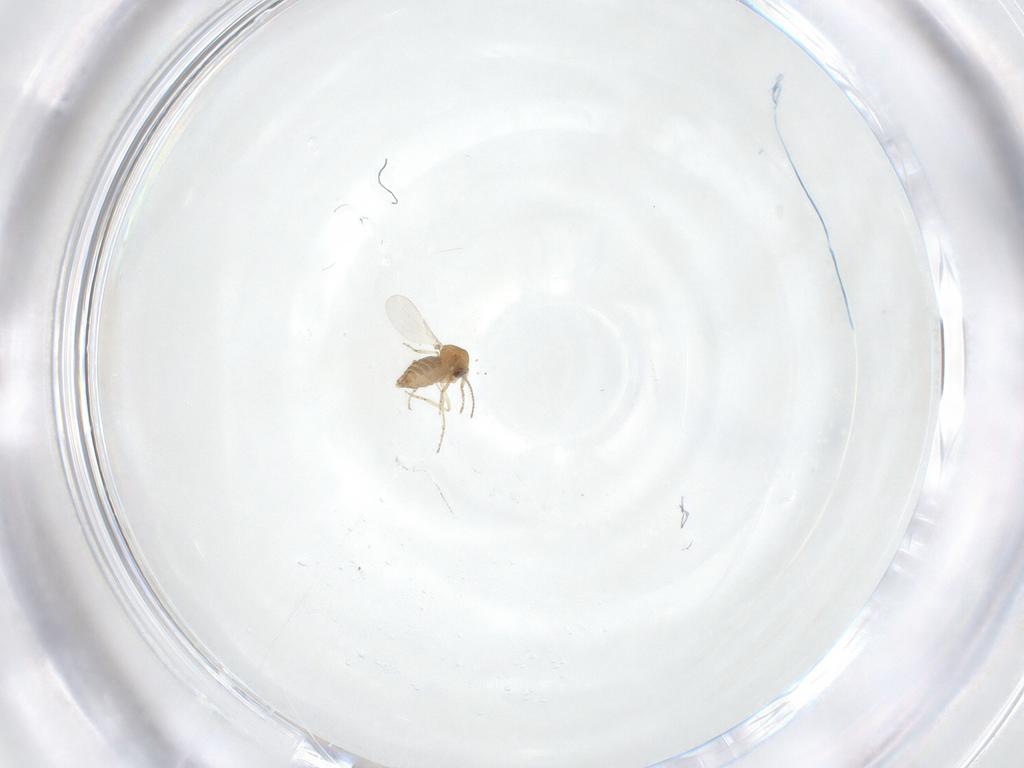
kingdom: Animalia
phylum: Arthropoda
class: Insecta
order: Diptera
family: Ceratopogonidae
